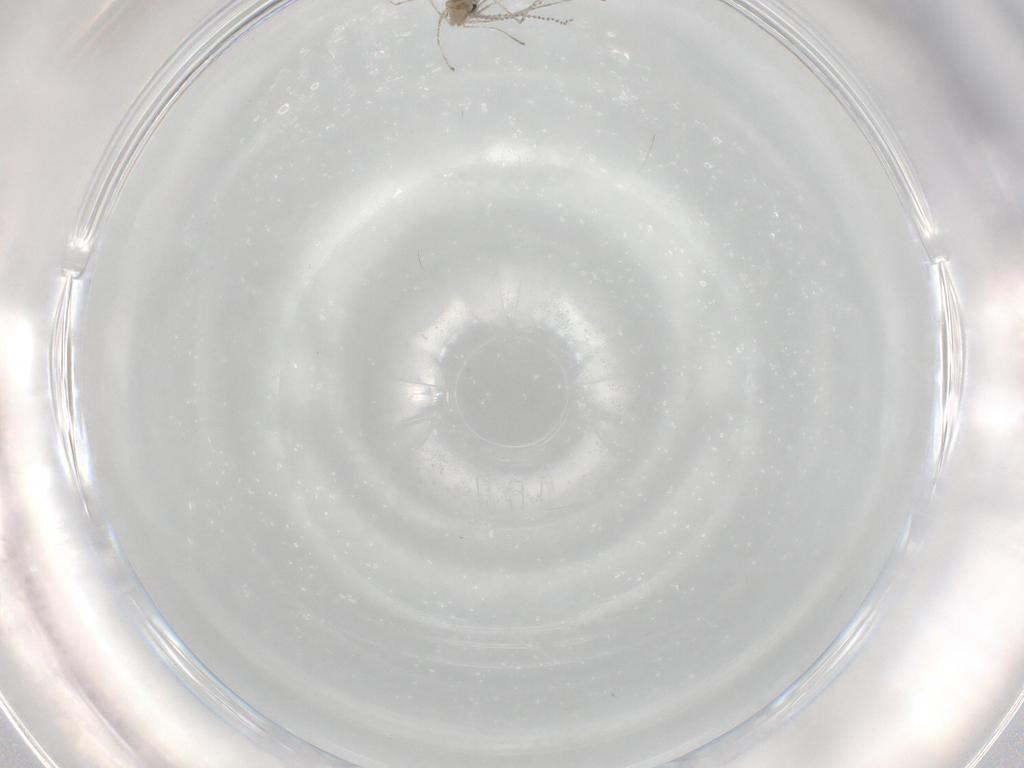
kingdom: Animalia
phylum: Arthropoda
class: Insecta
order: Diptera
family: Cecidomyiidae
